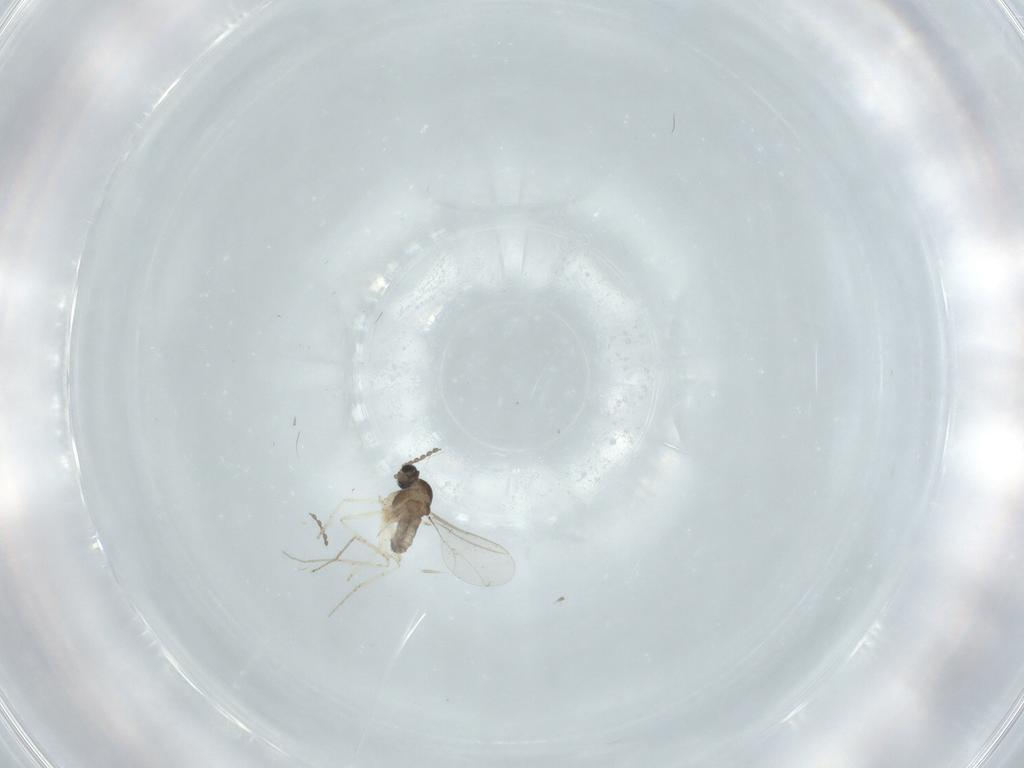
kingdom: Animalia
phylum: Arthropoda
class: Insecta
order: Diptera
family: Cecidomyiidae
